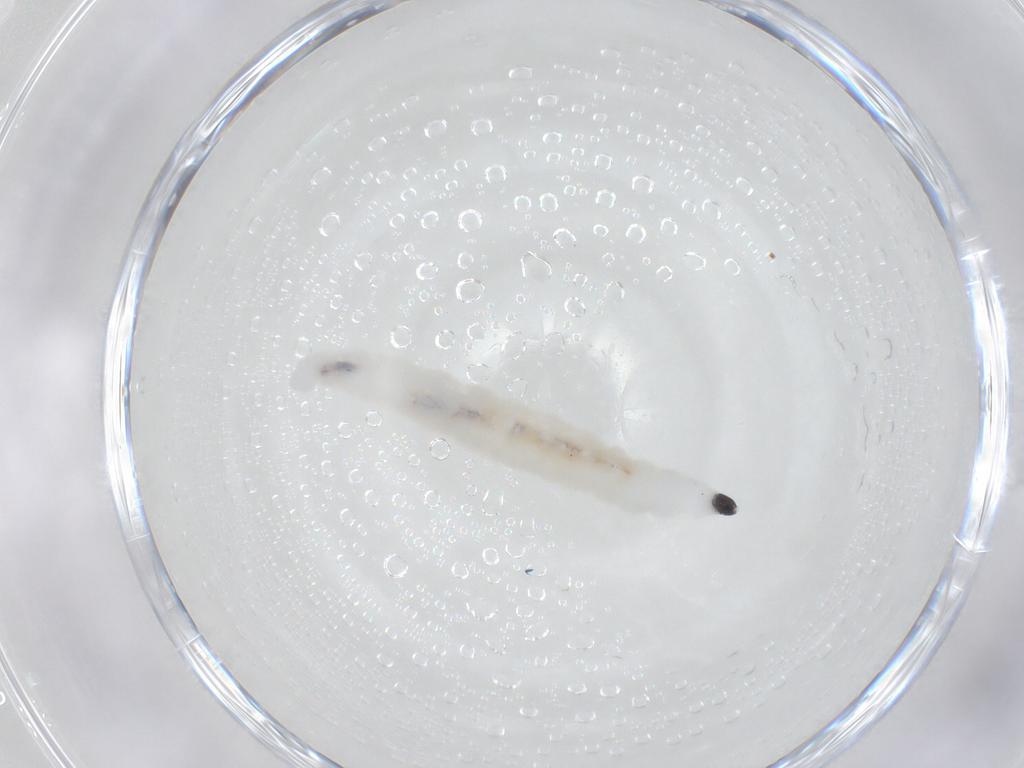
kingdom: Animalia
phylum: Arthropoda
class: Insecta
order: Diptera
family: Sciaridae
